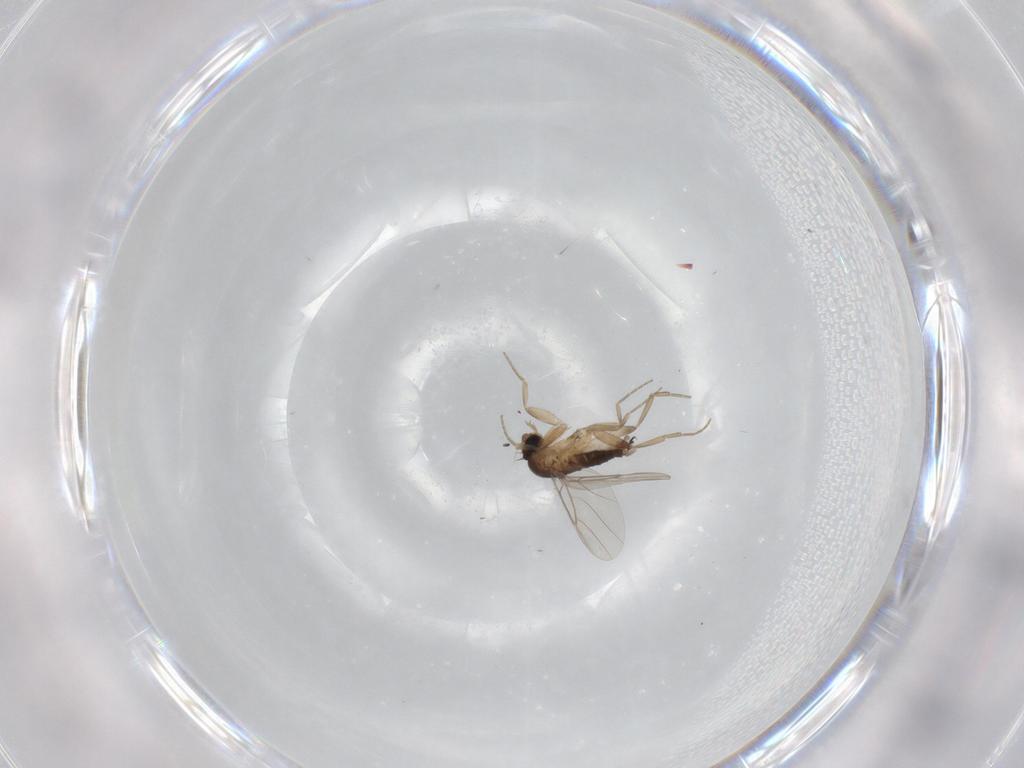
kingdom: Animalia
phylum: Arthropoda
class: Insecta
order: Diptera
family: Phoridae
